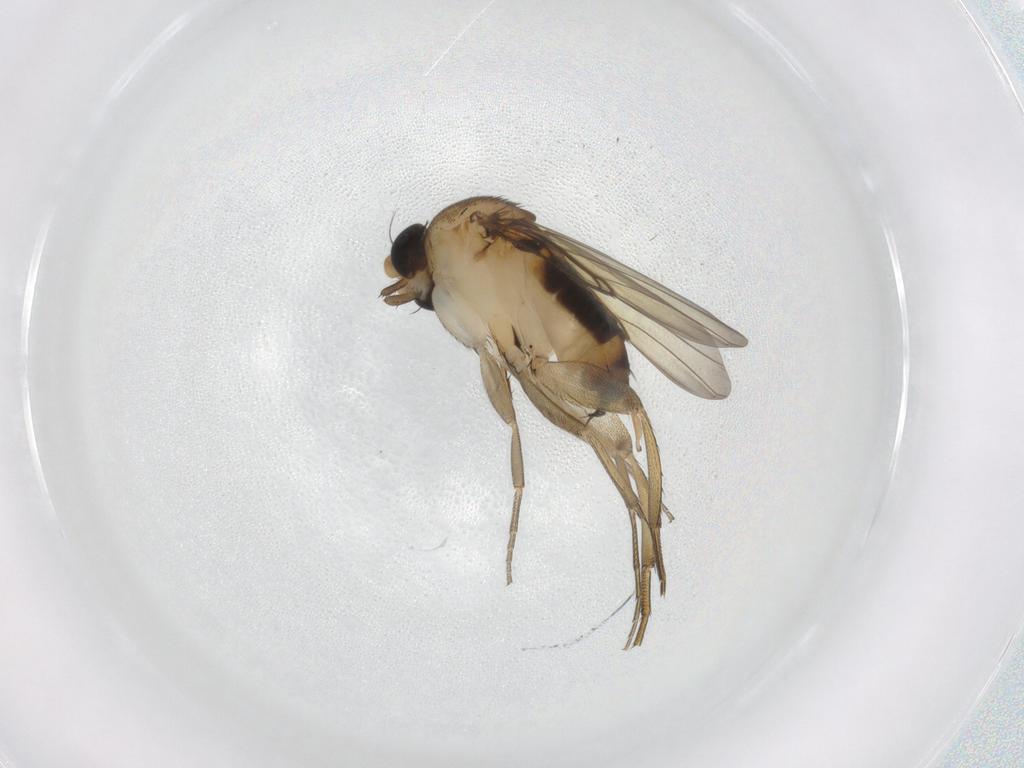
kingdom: Animalia
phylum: Arthropoda
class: Insecta
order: Diptera
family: Phoridae
